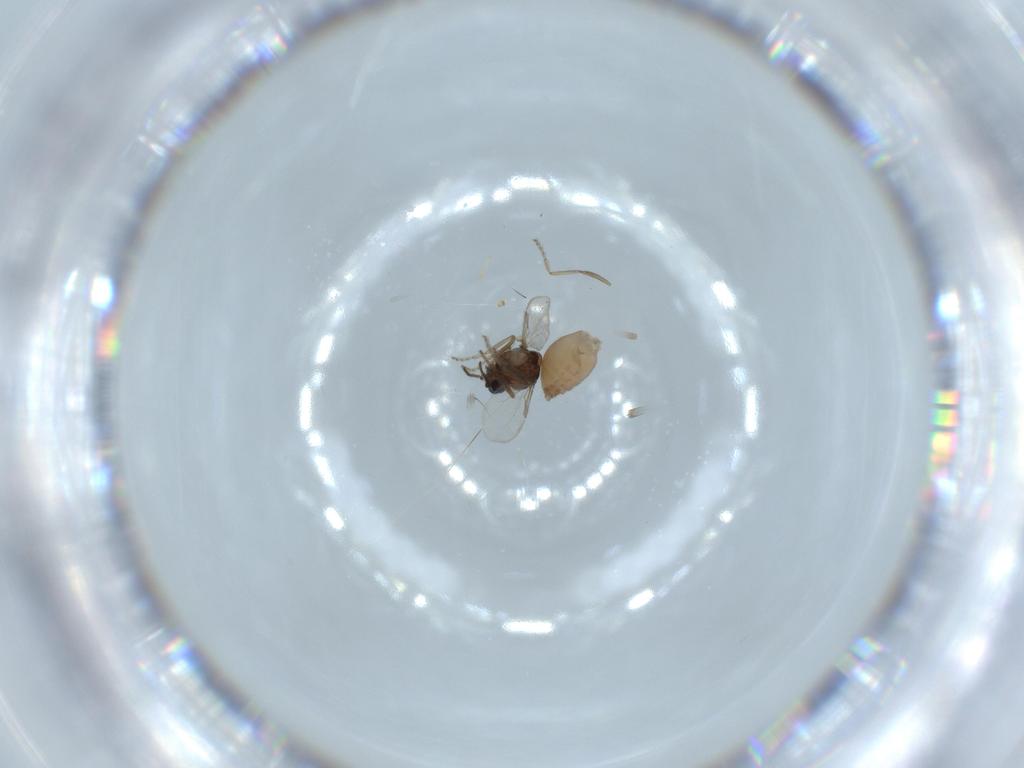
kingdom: Animalia
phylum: Arthropoda
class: Insecta
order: Diptera
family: Ceratopogonidae
